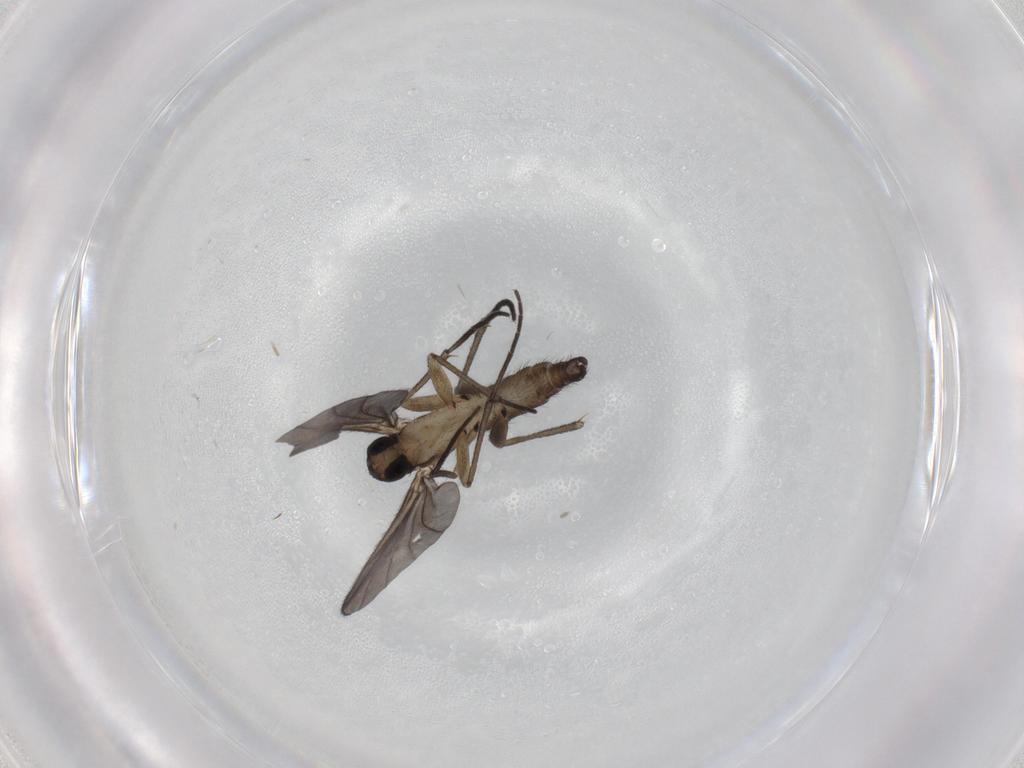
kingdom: Animalia
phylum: Arthropoda
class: Insecta
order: Diptera
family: Sciaridae
